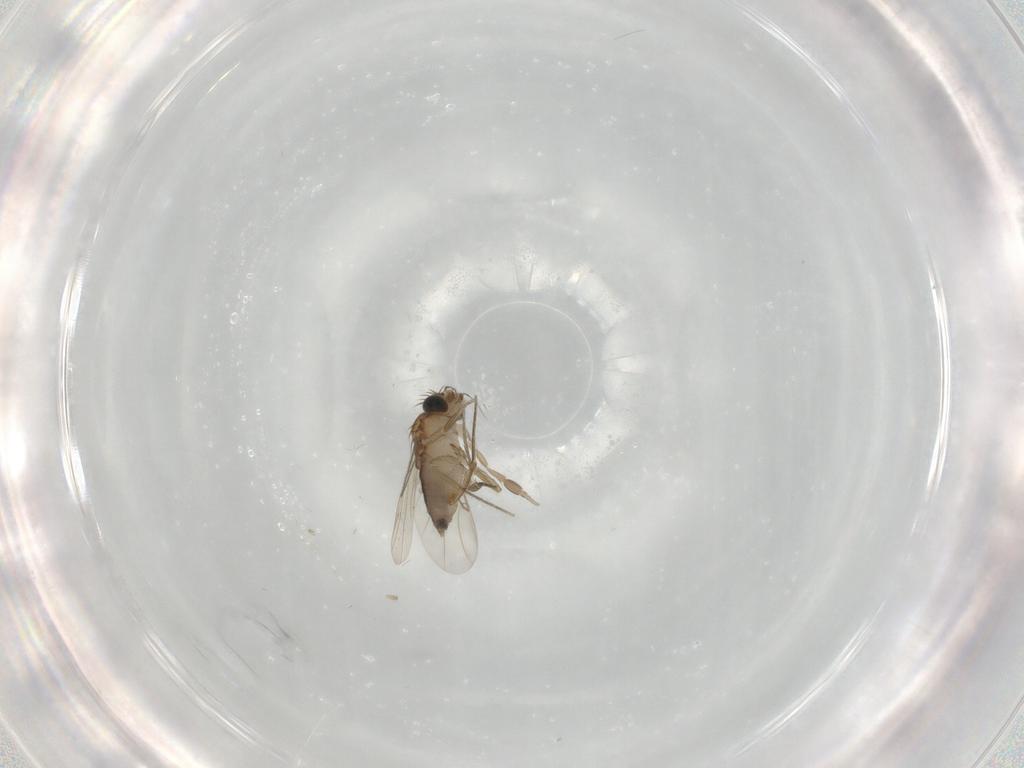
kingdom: Animalia
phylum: Arthropoda
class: Insecta
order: Diptera
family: Phoridae
